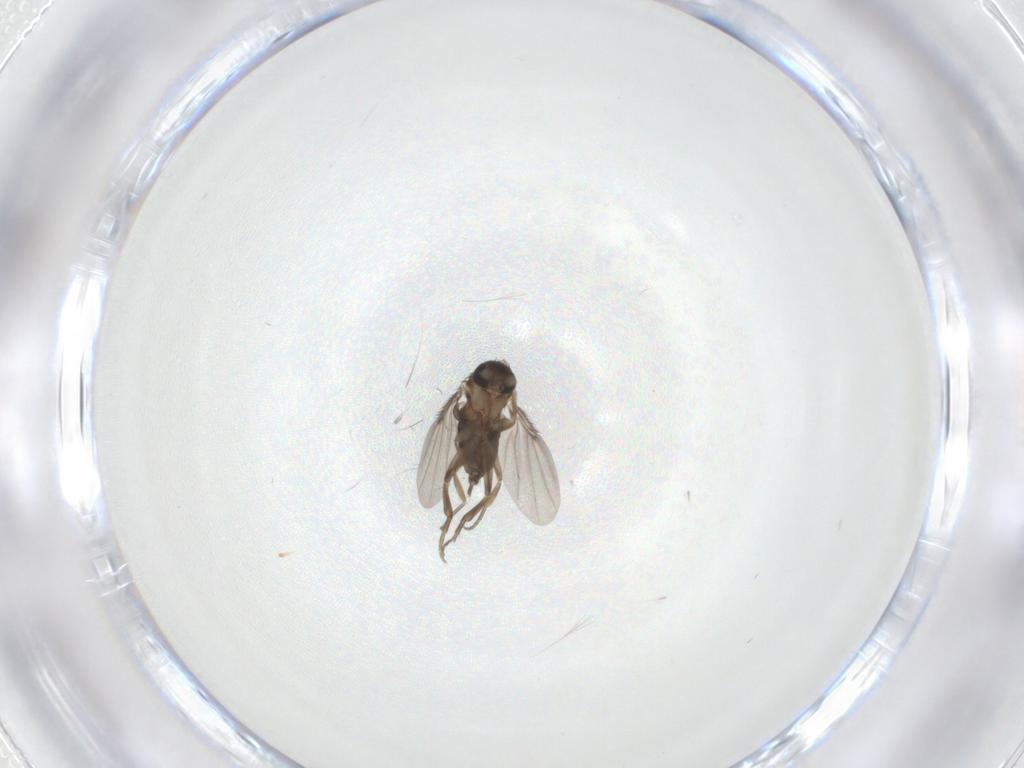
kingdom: Animalia
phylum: Arthropoda
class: Insecta
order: Diptera
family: Phoridae
